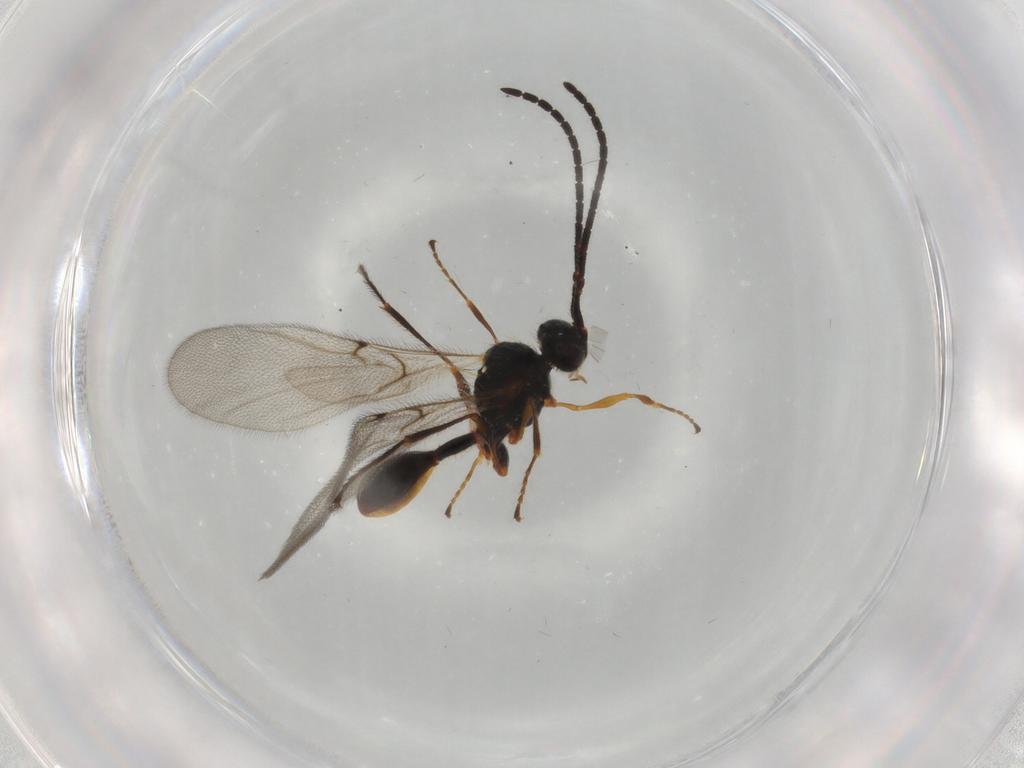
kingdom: Animalia
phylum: Arthropoda
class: Insecta
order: Hymenoptera
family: Diapriidae
